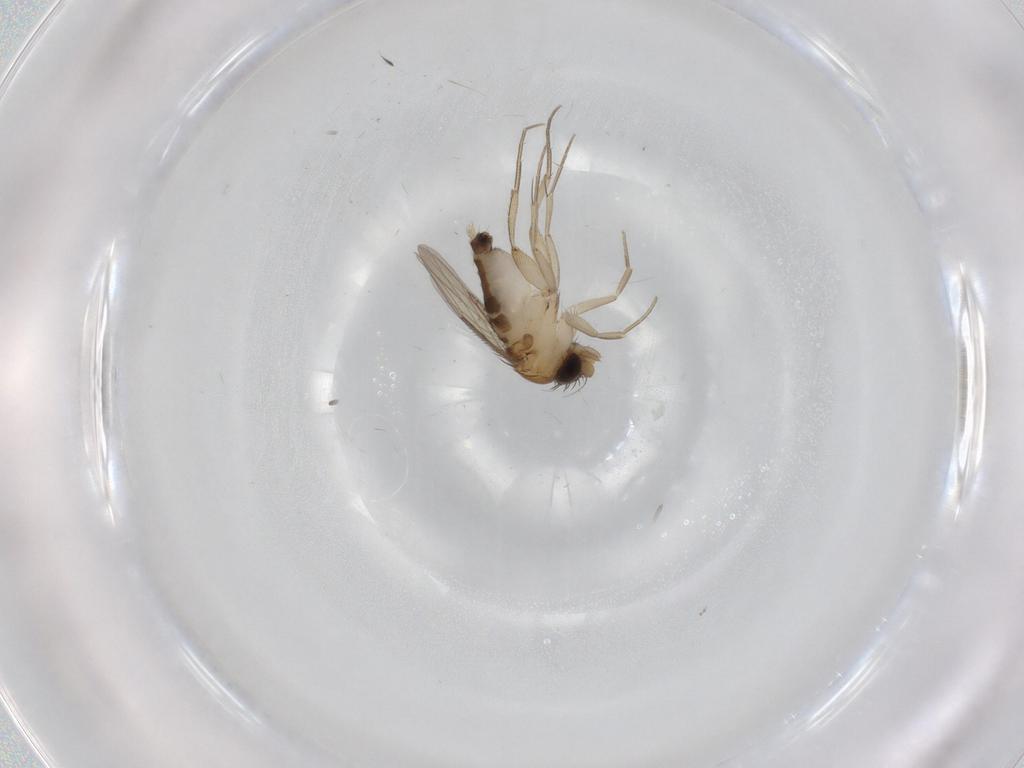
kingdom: Animalia
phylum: Arthropoda
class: Insecta
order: Diptera
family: Phoridae
